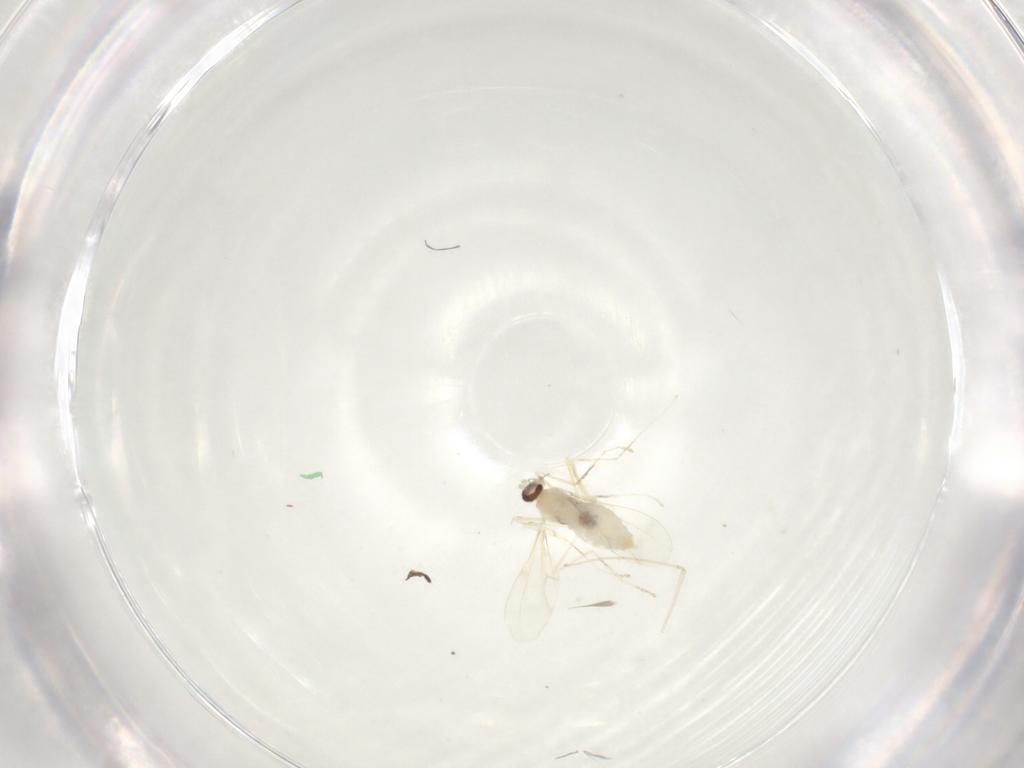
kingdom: Animalia
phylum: Arthropoda
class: Insecta
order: Diptera
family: Cecidomyiidae
